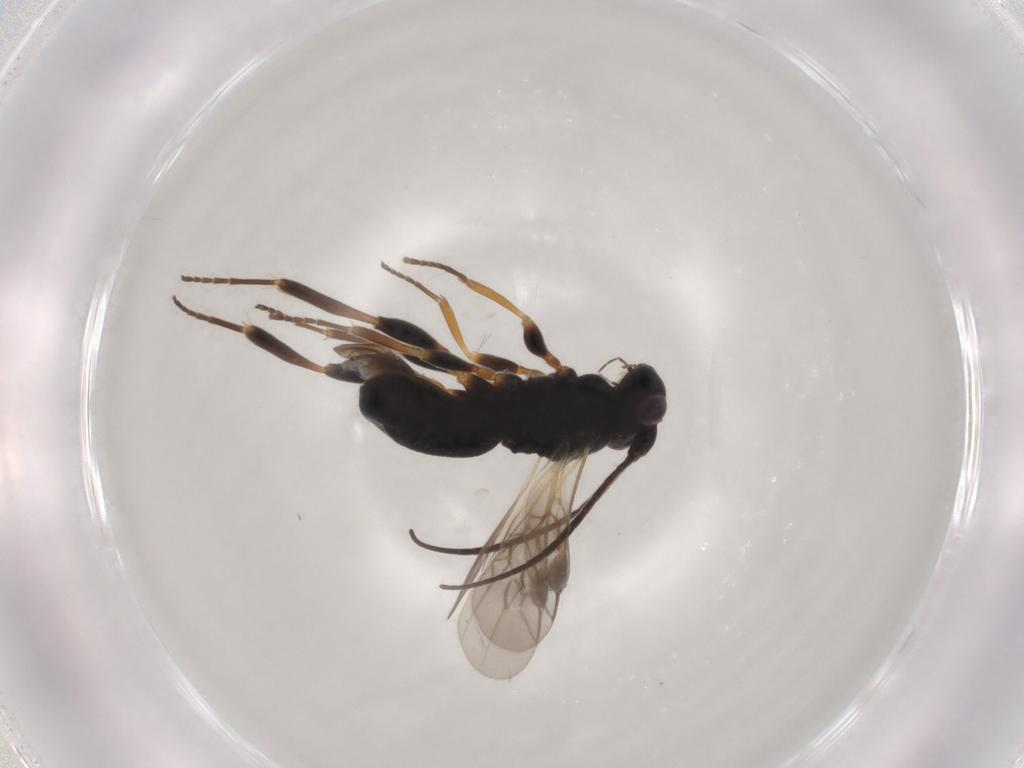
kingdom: Animalia
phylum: Arthropoda
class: Insecta
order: Hymenoptera
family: Braconidae
